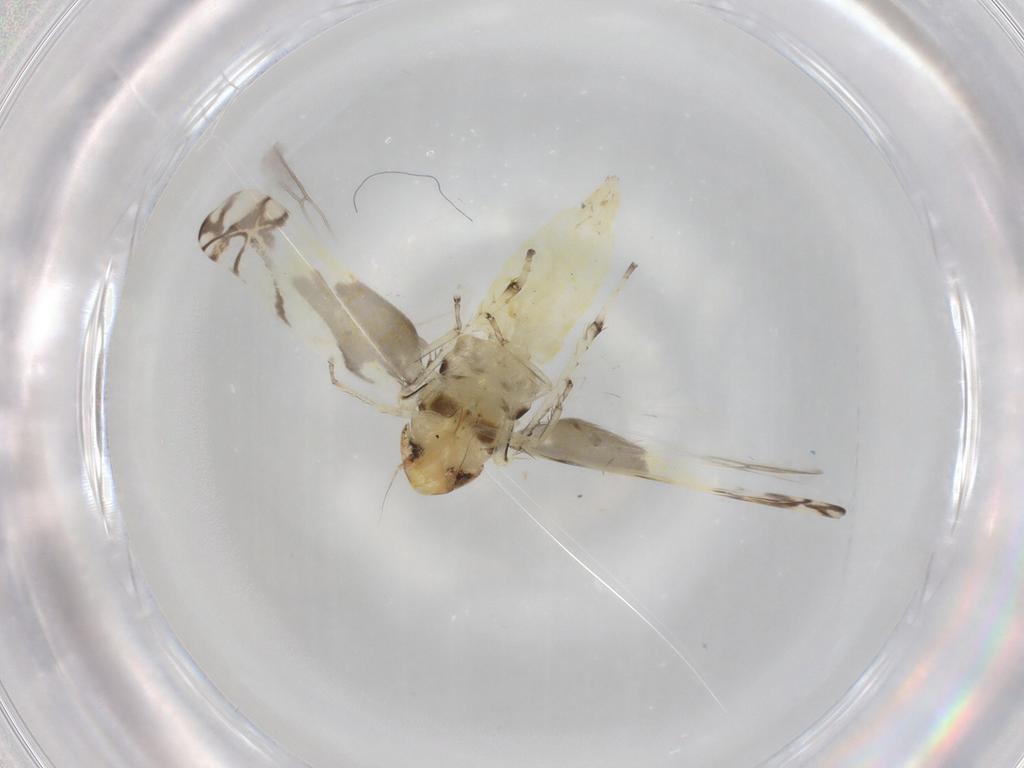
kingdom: Animalia
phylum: Arthropoda
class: Insecta
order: Hemiptera
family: Cicadellidae
